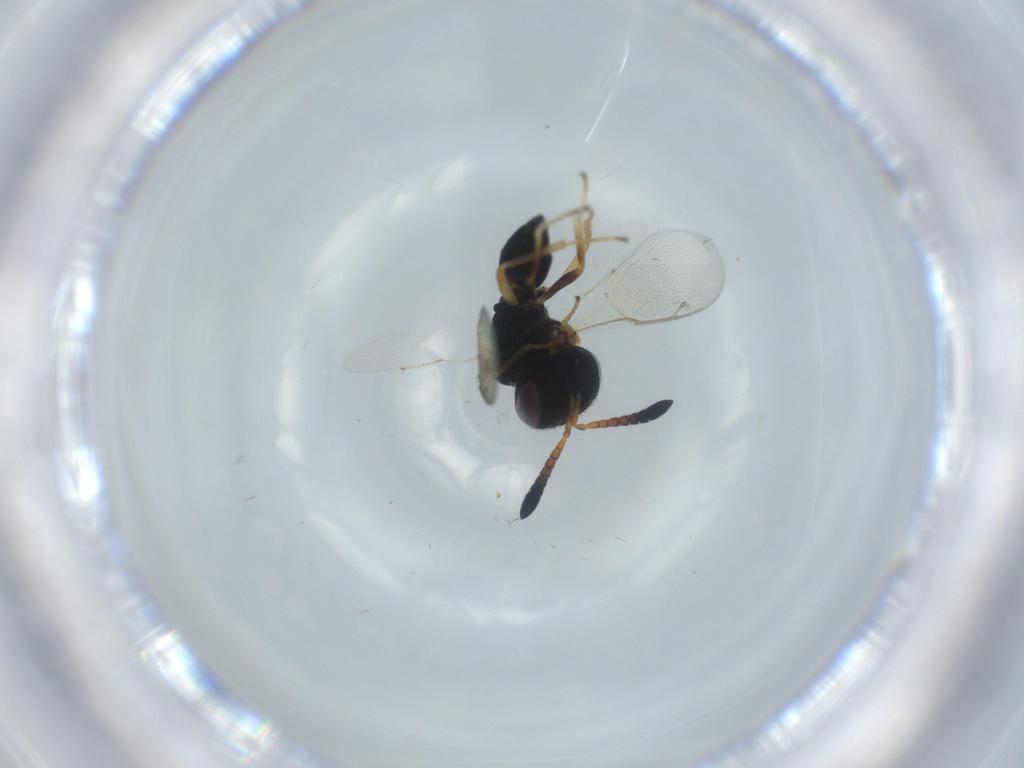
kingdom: Animalia
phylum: Arthropoda
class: Insecta
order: Hymenoptera
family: Pteromalidae
